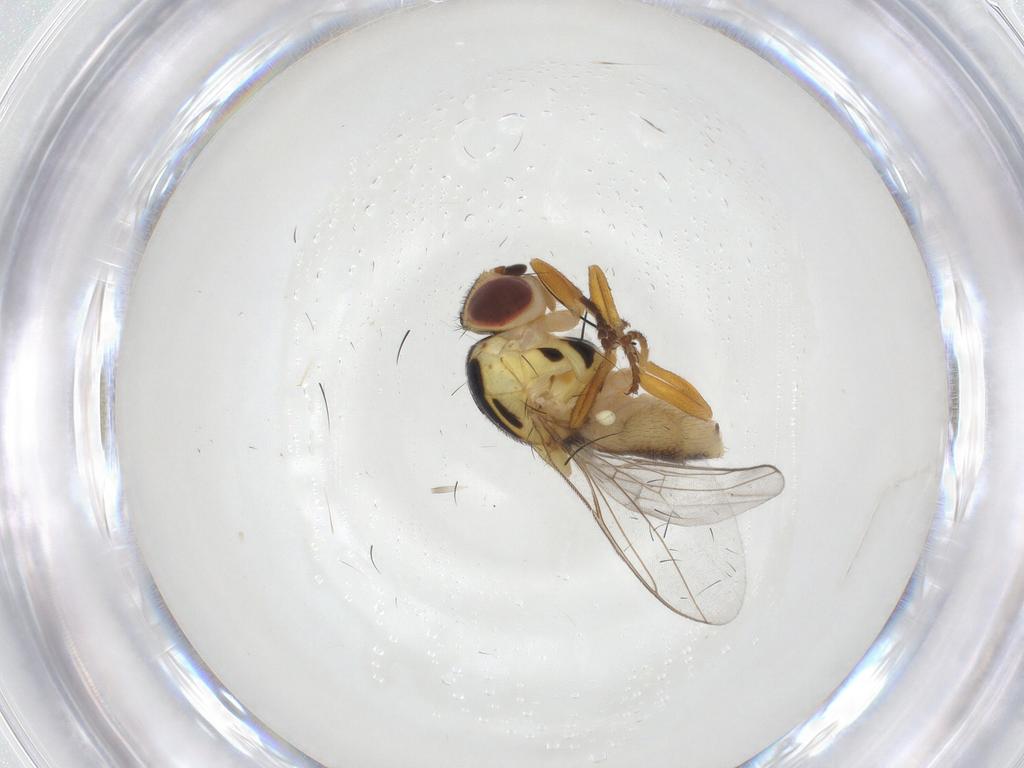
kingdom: Animalia
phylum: Arthropoda
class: Insecta
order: Diptera
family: Chloropidae
